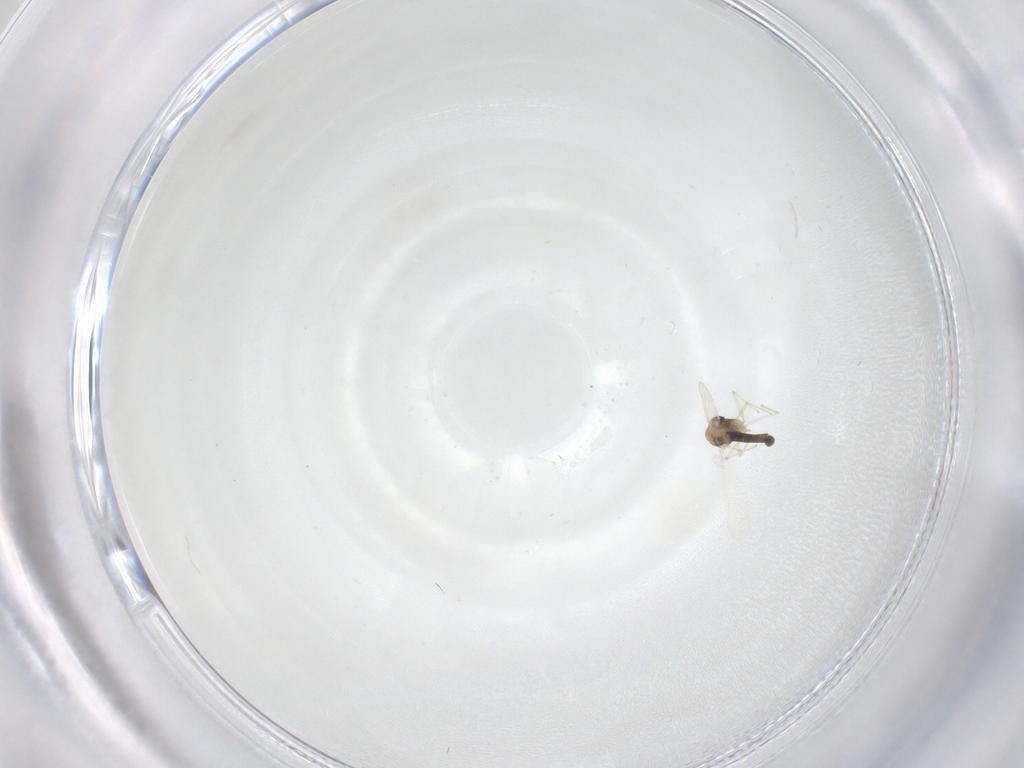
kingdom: Animalia
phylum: Arthropoda
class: Insecta
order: Diptera
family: Chironomidae
